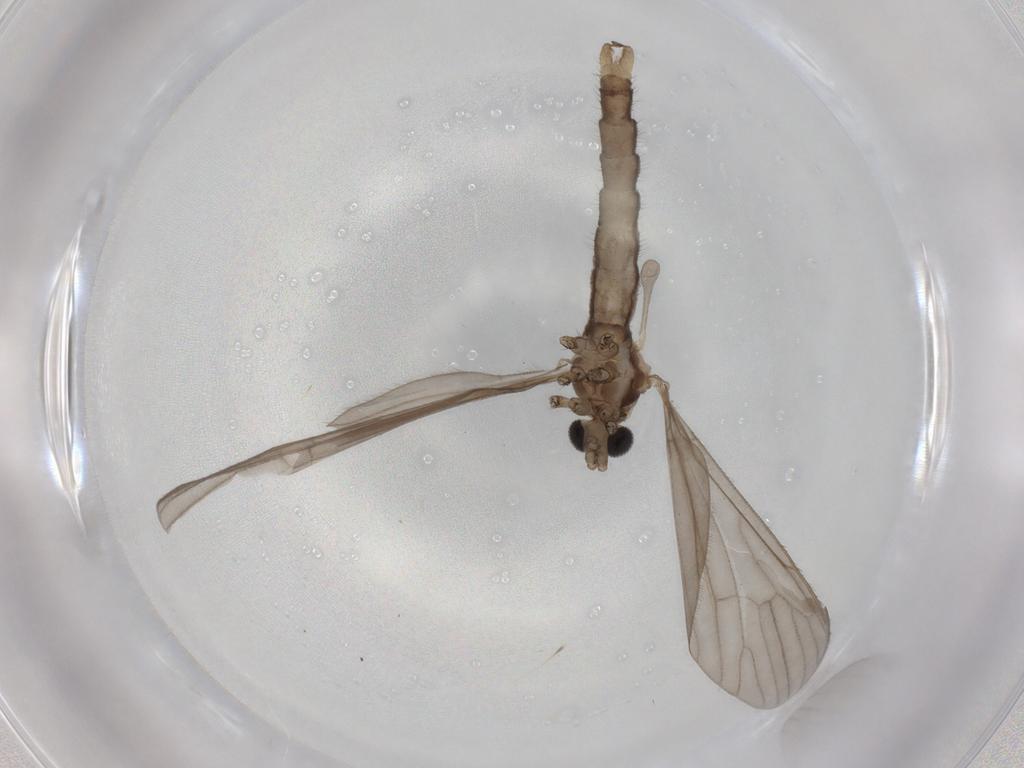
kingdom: Animalia
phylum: Arthropoda
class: Insecta
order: Diptera
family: Limoniidae
